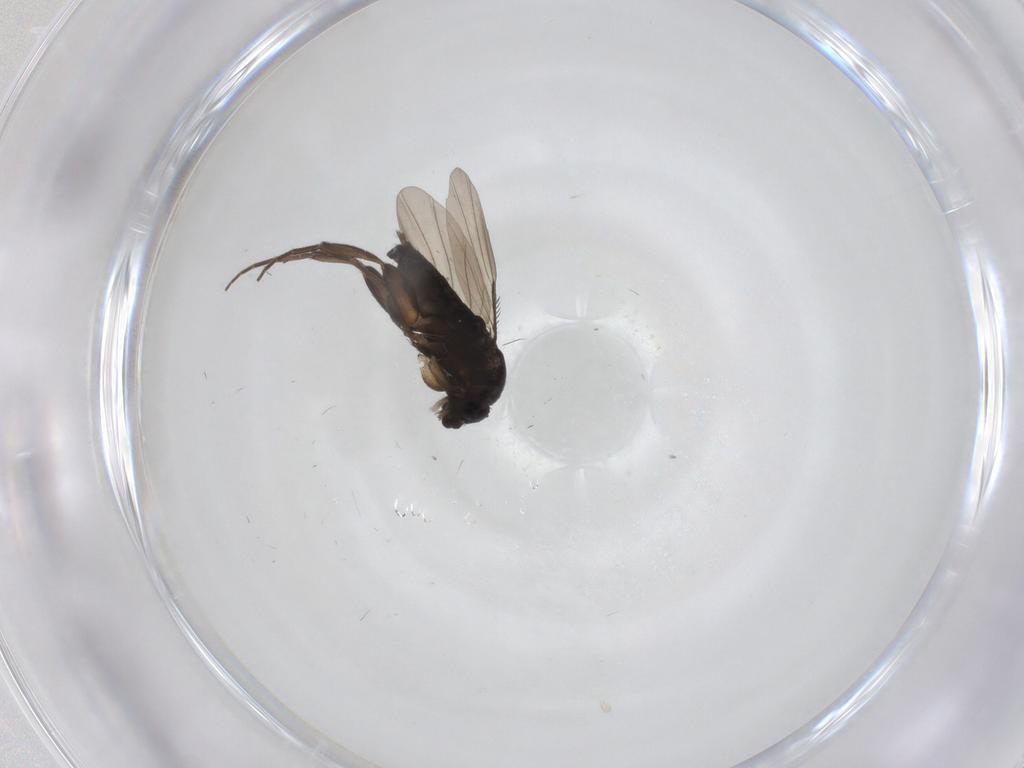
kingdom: Animalia
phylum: Arthropoda
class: Insecta
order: Diptera
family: Phoridae
